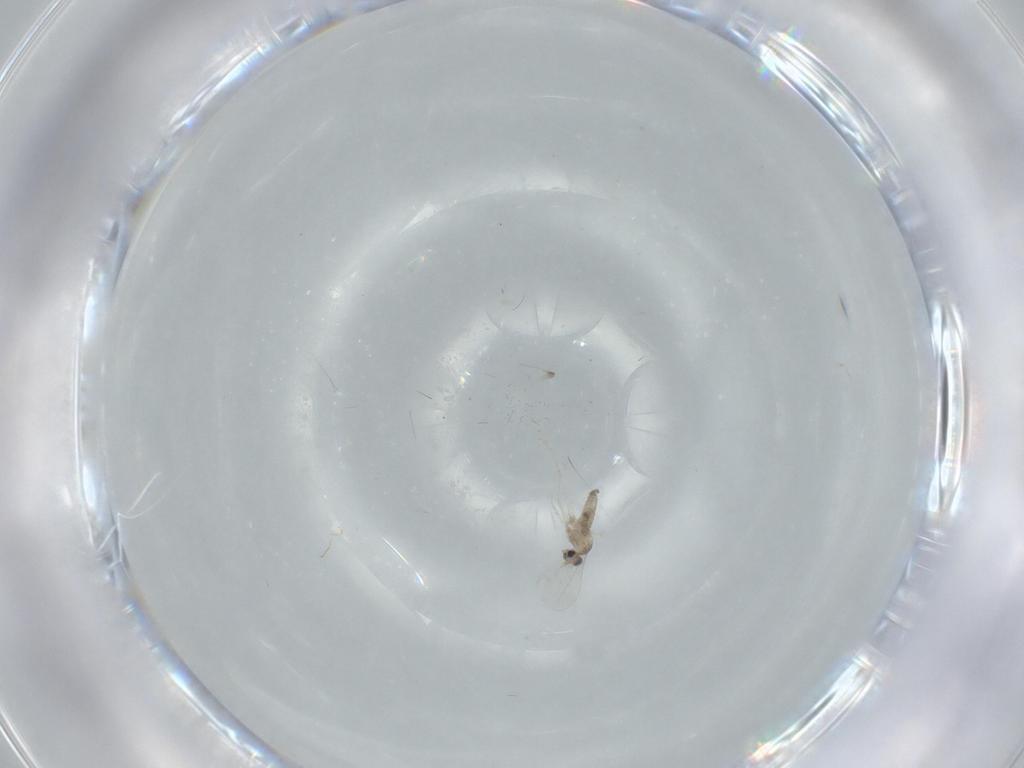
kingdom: Animalia
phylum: Arthropoda
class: Insecta
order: Diptera
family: Cecidomyiidae
